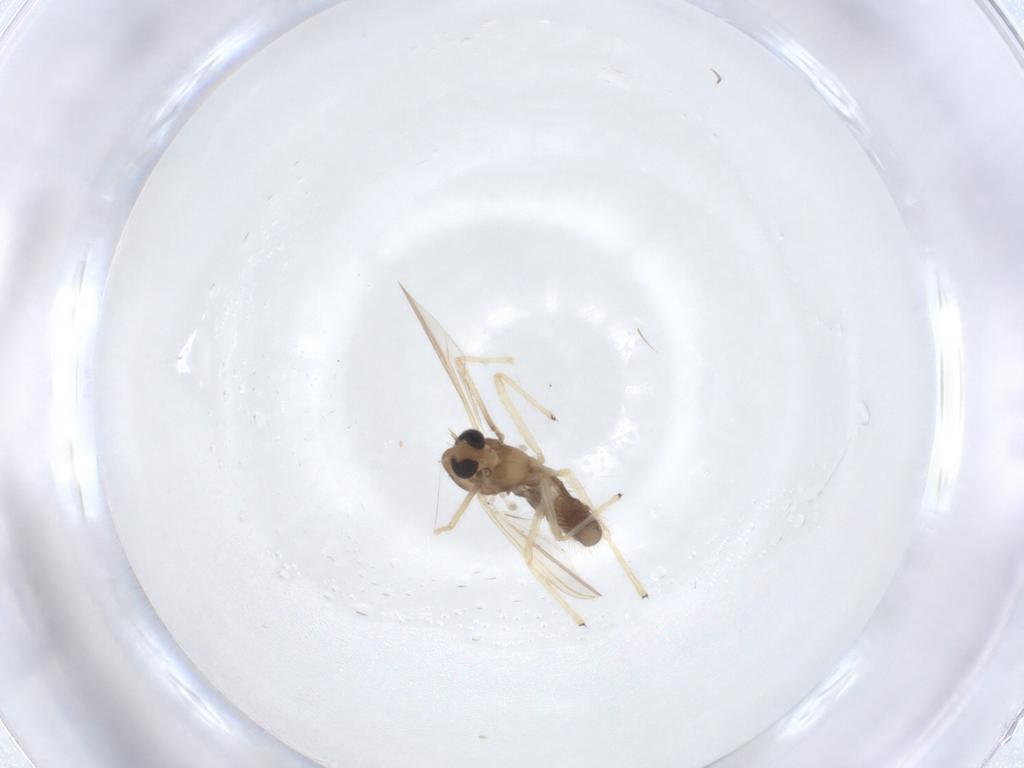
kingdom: Animalia
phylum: Arthropoda
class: Insecta
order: Diptera
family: Chironomidae
